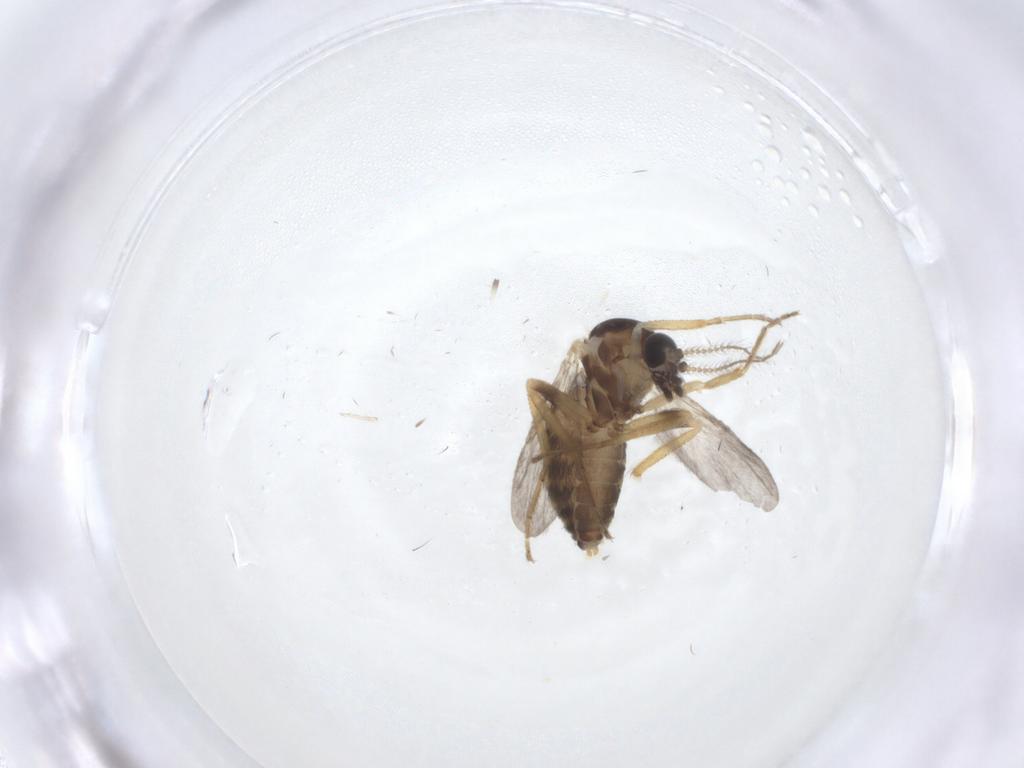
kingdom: Animalia
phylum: Arthropoda
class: Insecta
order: Diptera
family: Ceratopogonidae
